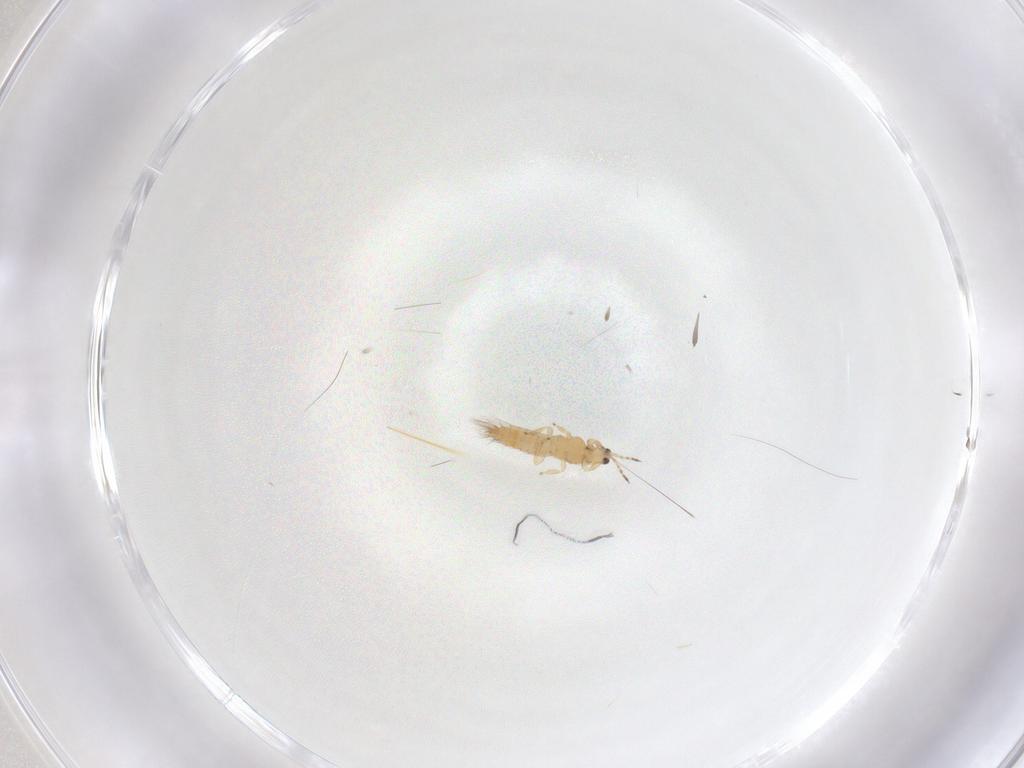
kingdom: Animalia
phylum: Arthropoda
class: Insecta
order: Thysanoptera
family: Thripidae
